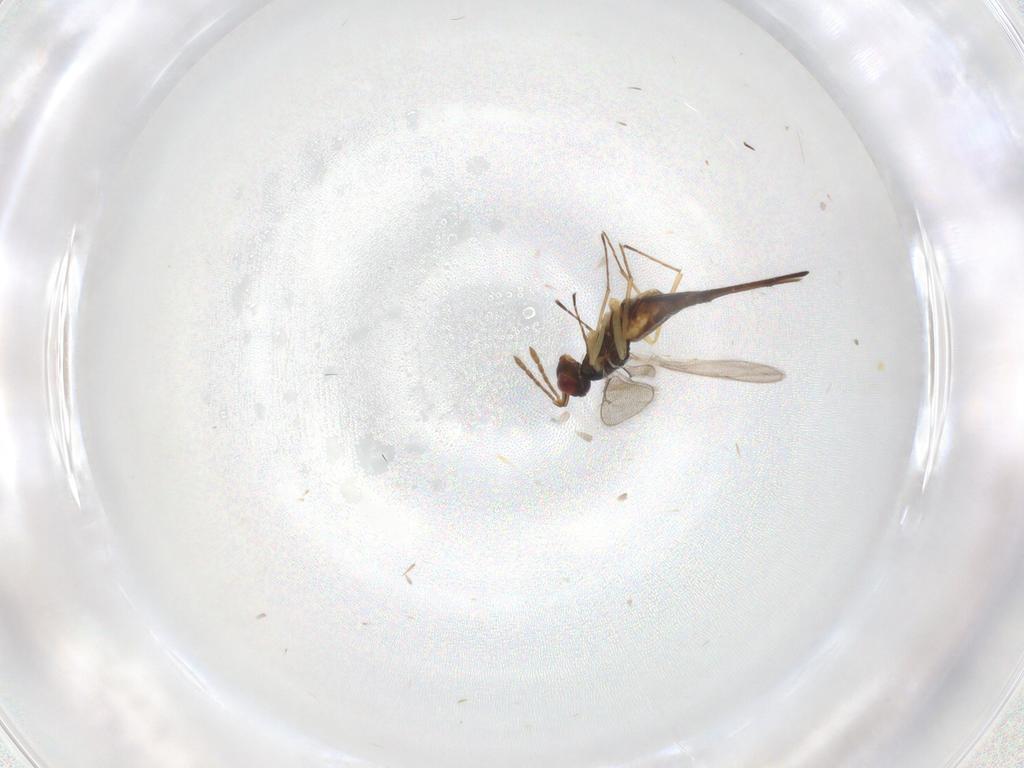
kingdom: Animalia
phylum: Arthropoda
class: Insecta
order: Hymenoptera
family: Eulophidae
